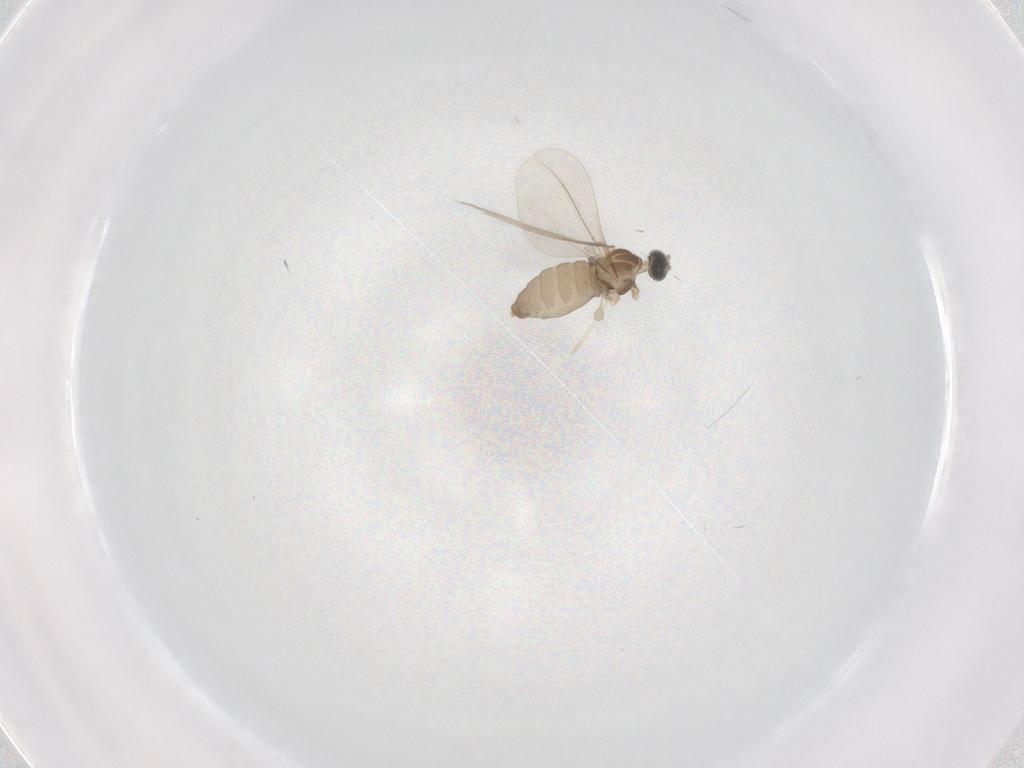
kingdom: Animalia
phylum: Arthropoda
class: Insecta
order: Diptera
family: Cecidomyiidae
